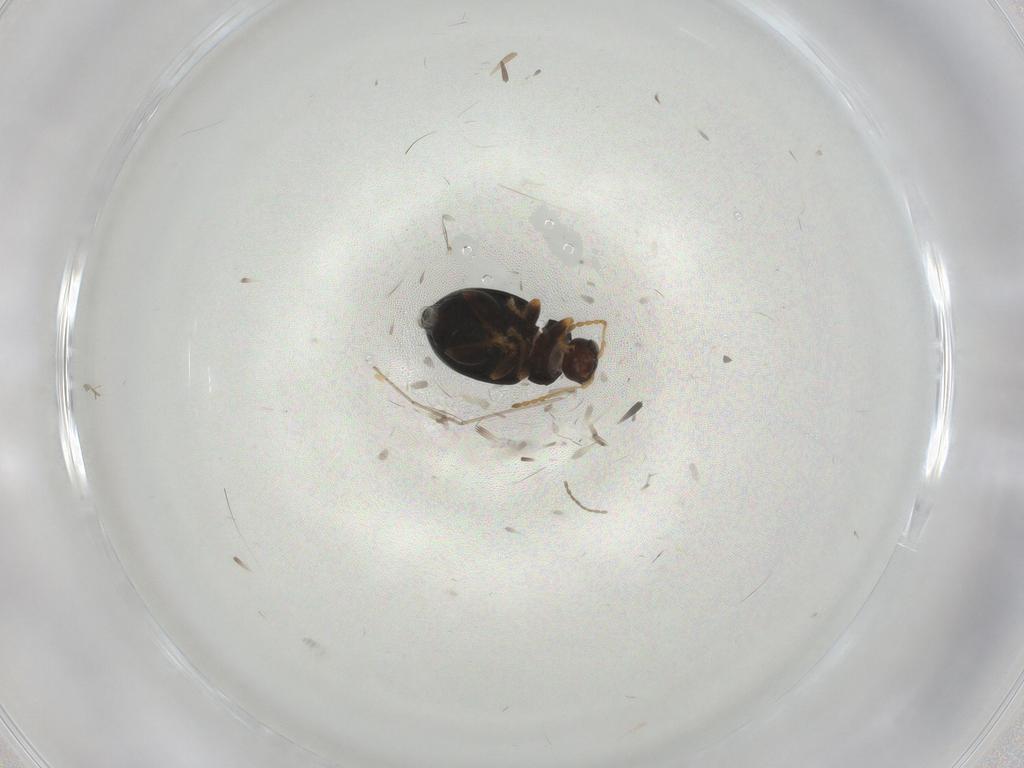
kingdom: Animalia
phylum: Arthropoda
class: Insecta
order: Coleoptera
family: Chrysomelidae
